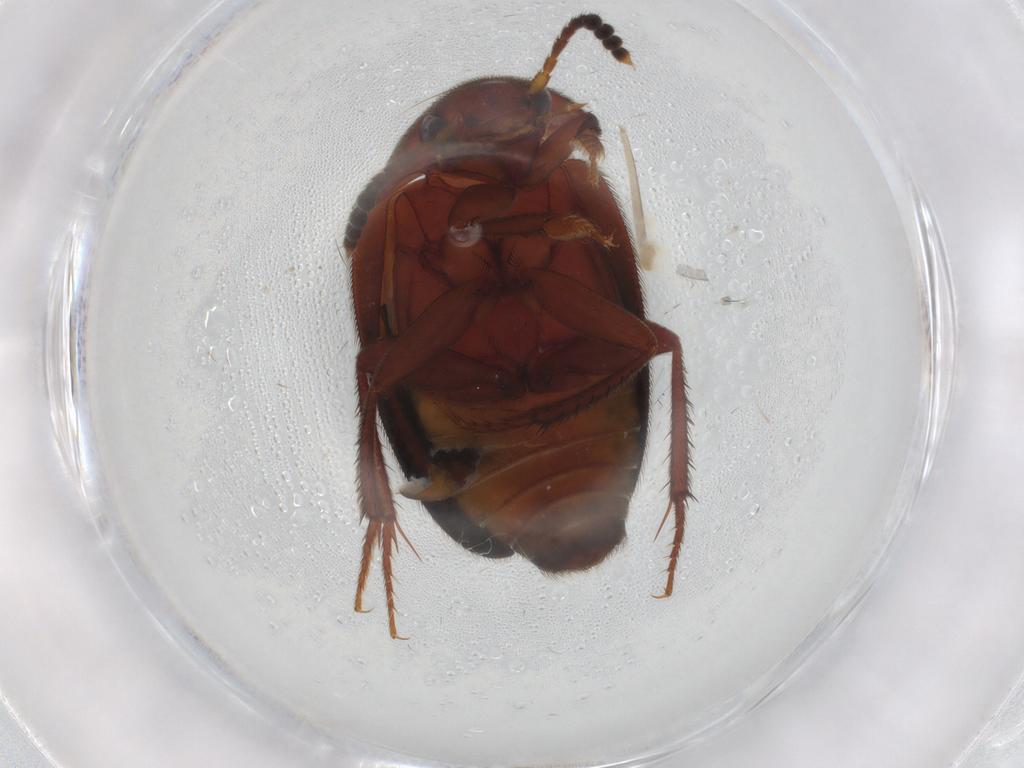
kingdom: Animalia
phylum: Arthropoda
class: Insecta
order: Coleoptera
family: Leiodidae
